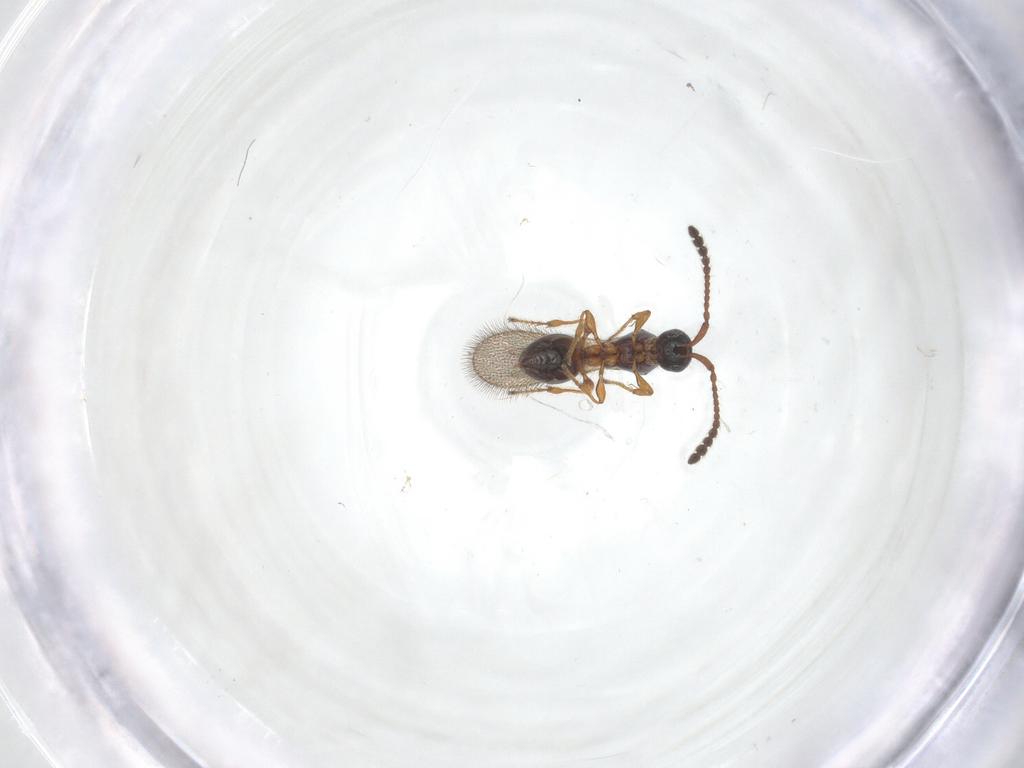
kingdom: Animalia
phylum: Arthropoda
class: Insecta
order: Hymenoptera
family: Diapriidae
